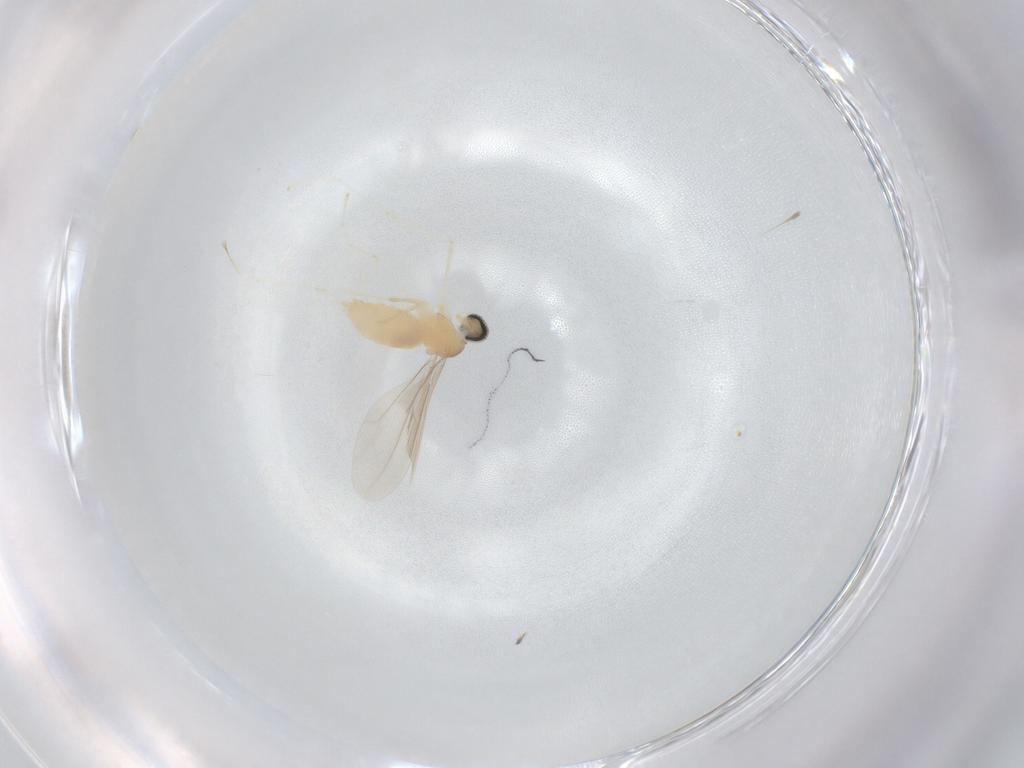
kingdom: Animalia
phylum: Arthropoda
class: Insecta
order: Diptera
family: Cecidomyiidae
